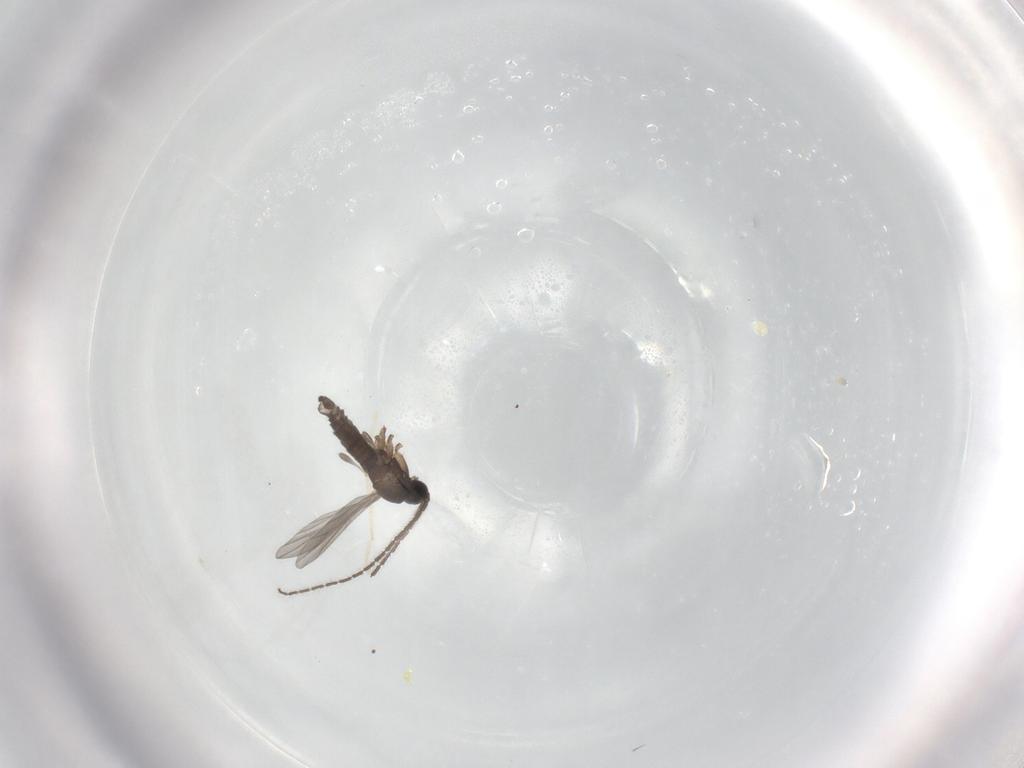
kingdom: Animalia
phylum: Arthropoda
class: Insecta
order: Diptera
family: Sciaridae
